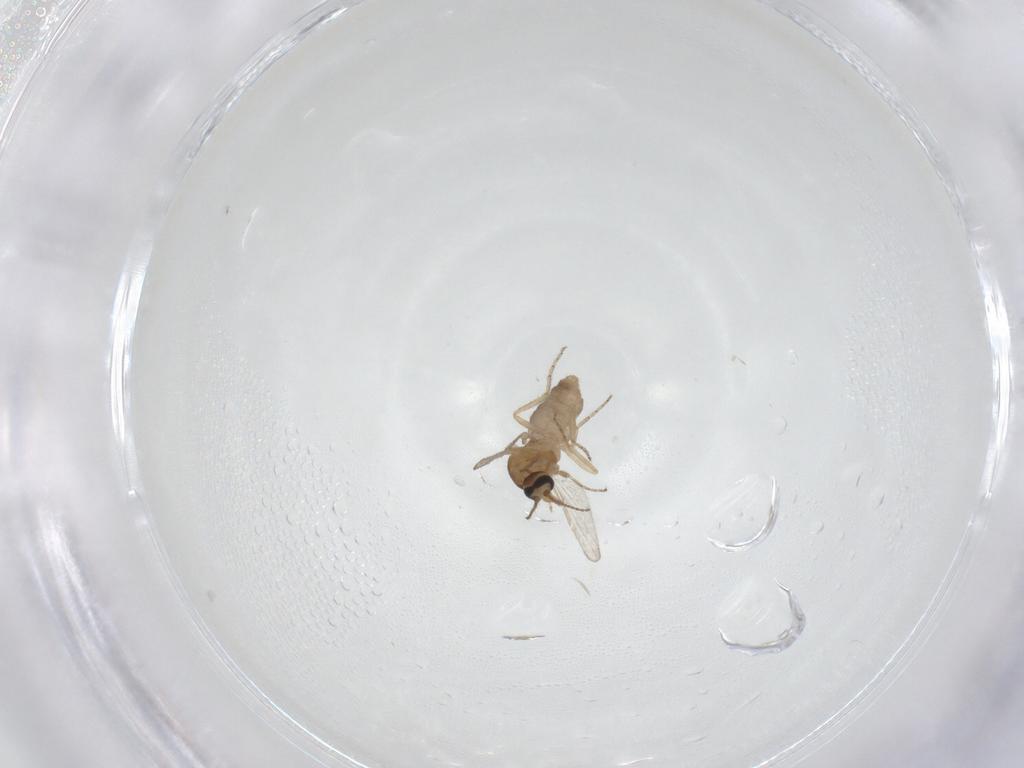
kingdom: Animalia
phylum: Arthropoda
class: Insecta
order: Diptera
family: Ceratopogonidae
